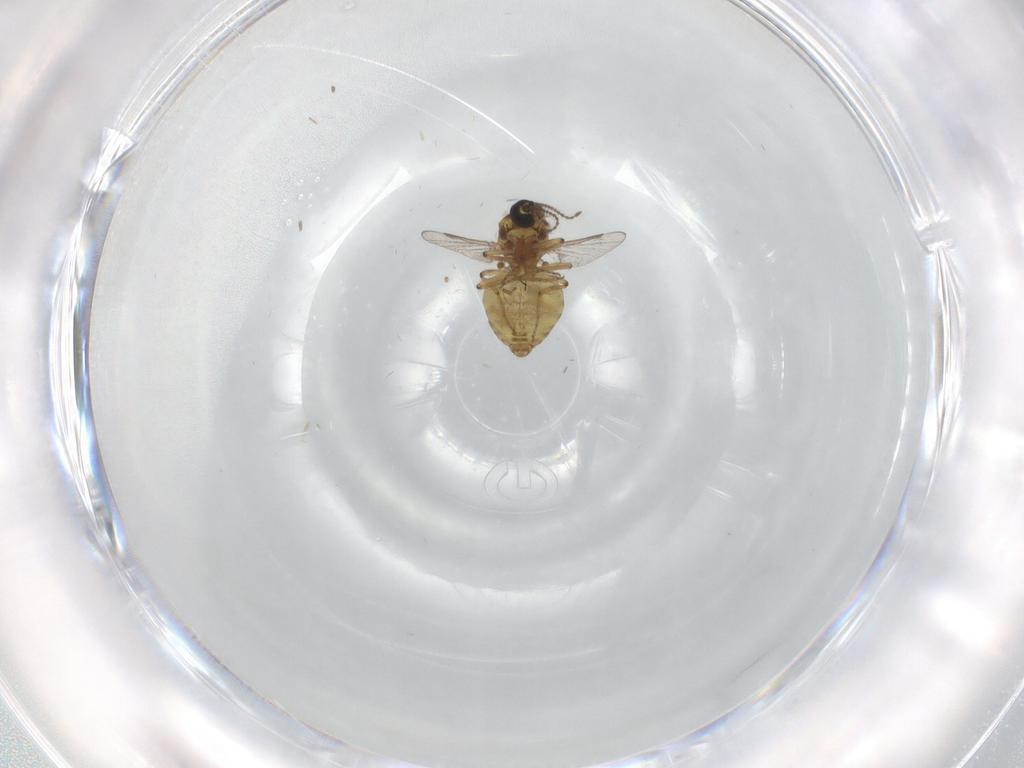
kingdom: Animalia
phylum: Arthropoda
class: Insecta
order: Diptera
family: Ceratopogonidae
